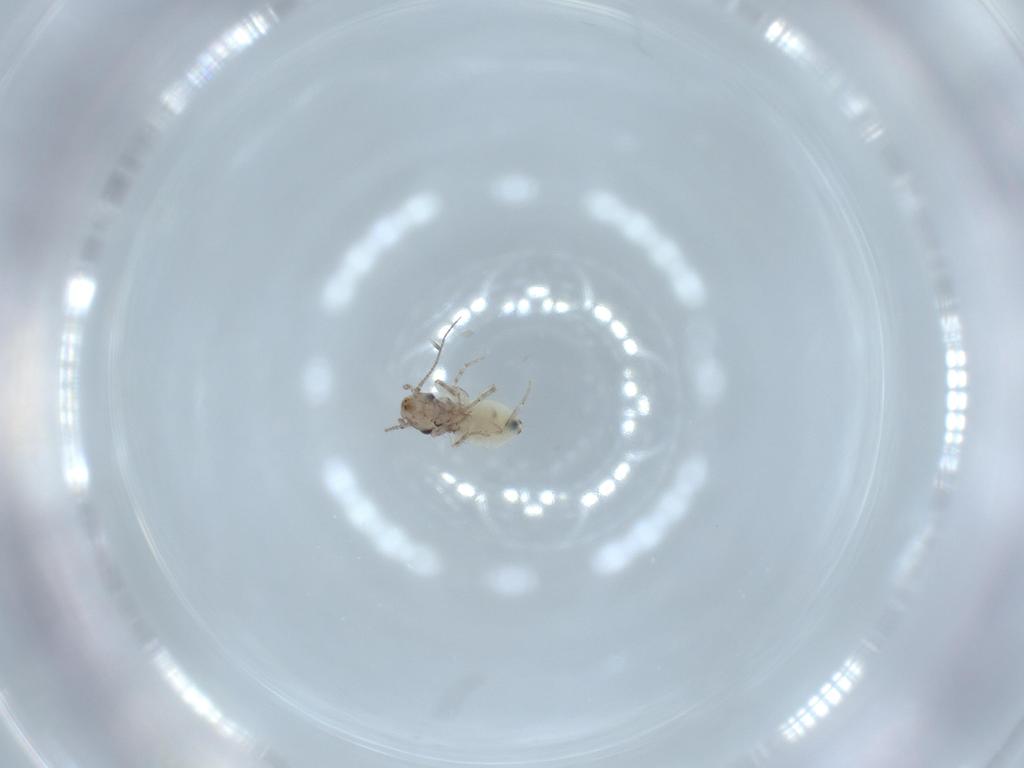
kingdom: Animalia
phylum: Arthropoda
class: Insecta
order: Psocodea
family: Lepidopsocidae
